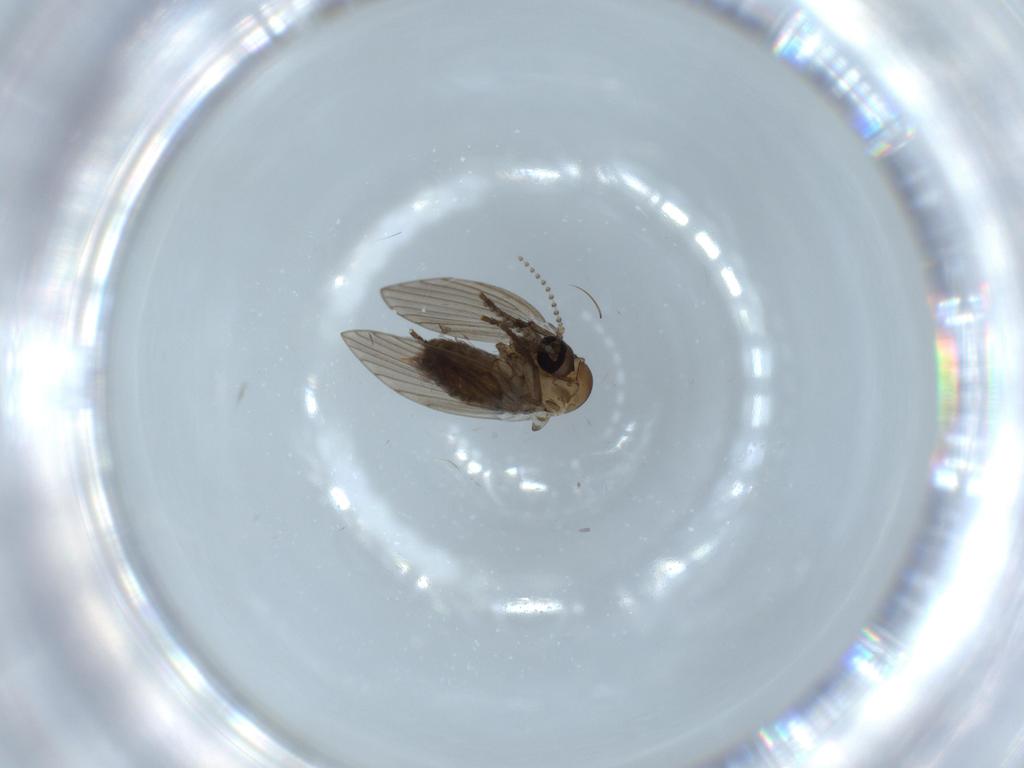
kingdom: Animalia
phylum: Arthropoda
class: Insecta
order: Diptera
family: Psychodidae
